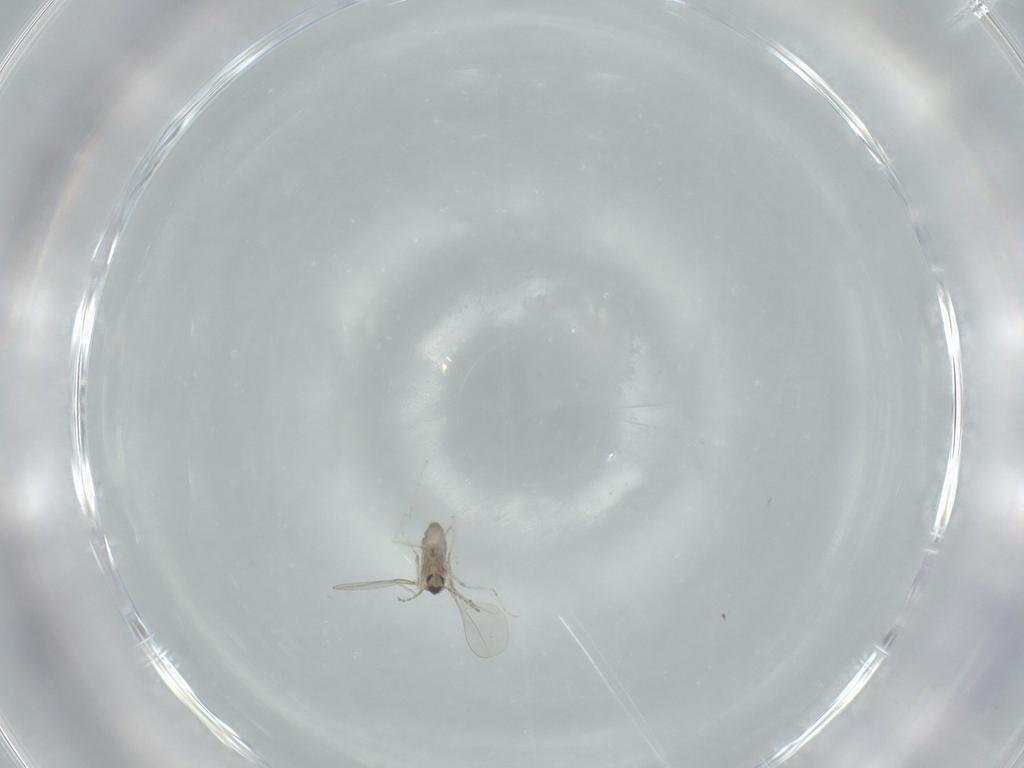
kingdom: Animalia
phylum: Arthropoda
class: Insecta
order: Diptera
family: Cecidomyiidae
